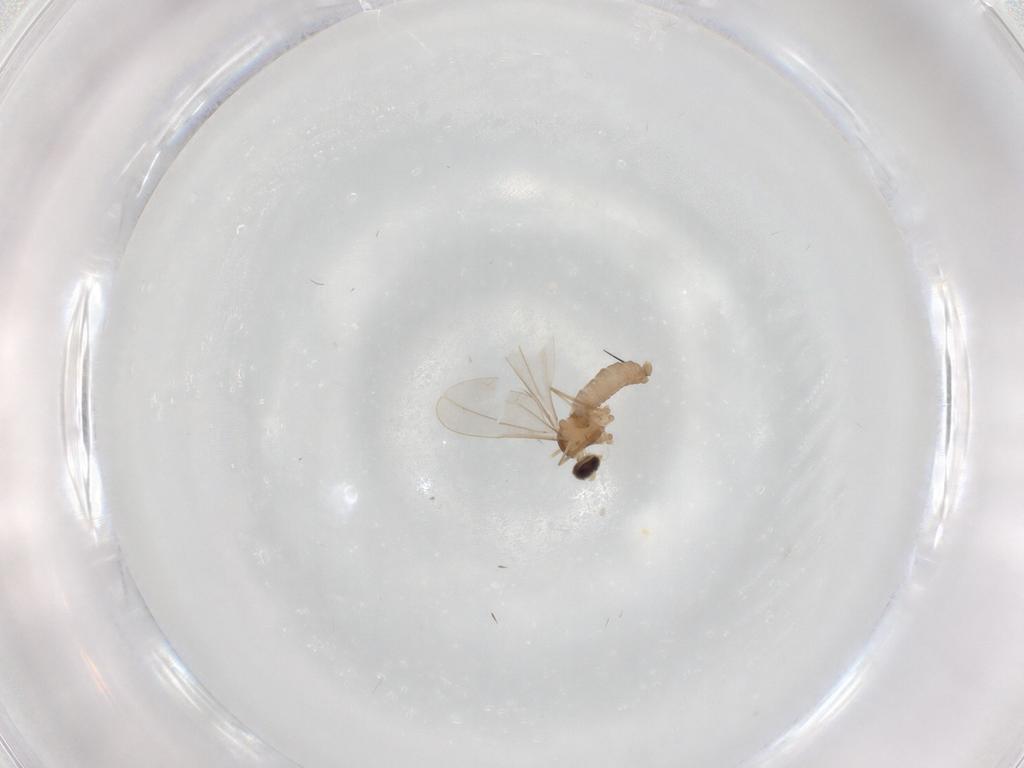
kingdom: Animalia
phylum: Arthropoda
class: Insecta
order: Diptera
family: Cecidomyiidae
